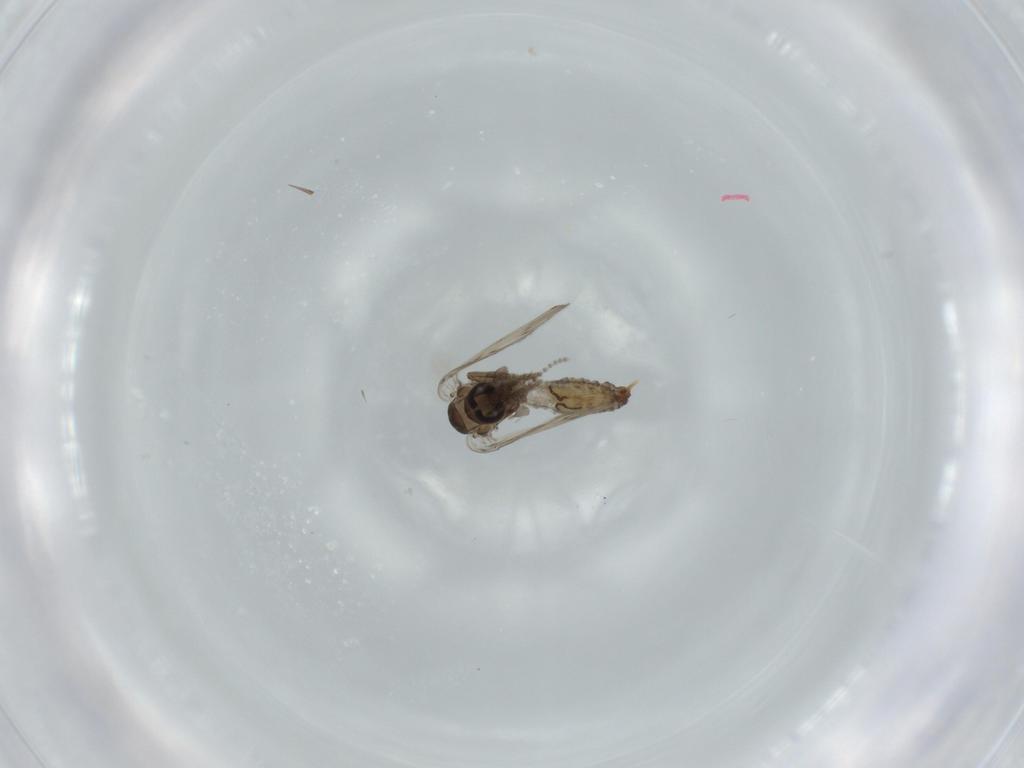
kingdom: Animalia
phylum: Arthropoda
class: Insecta
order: Diptera
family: Psychodidae
